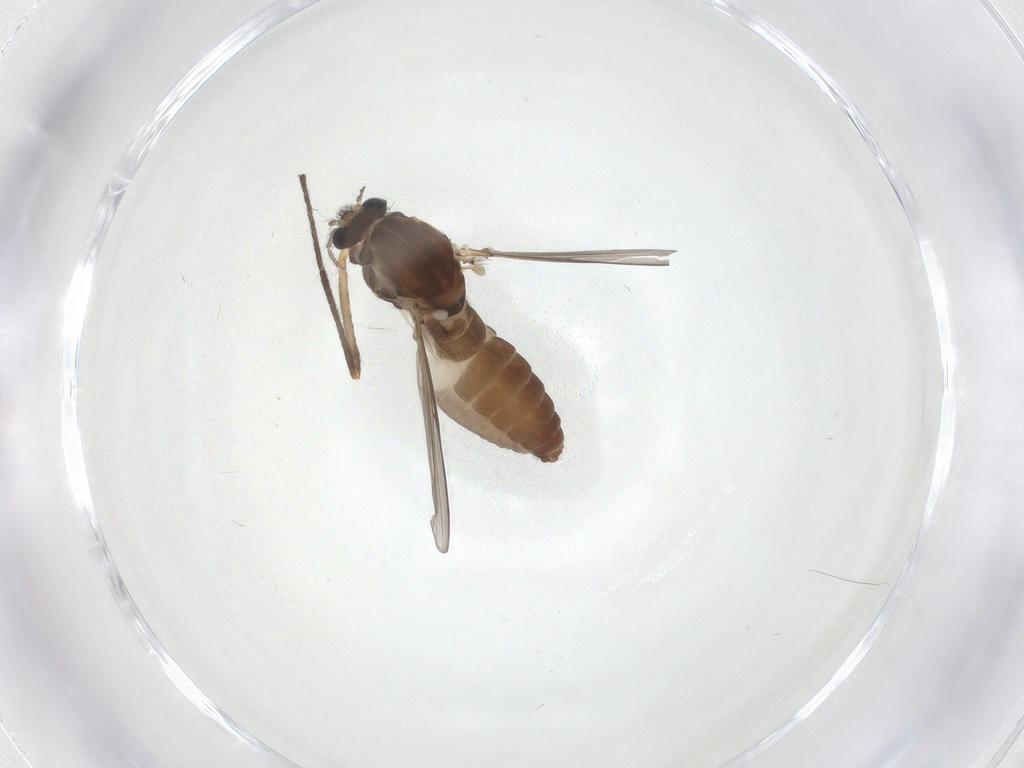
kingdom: Animalia
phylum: Arthropoda
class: Insecta
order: Diptera
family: Chironomidae
